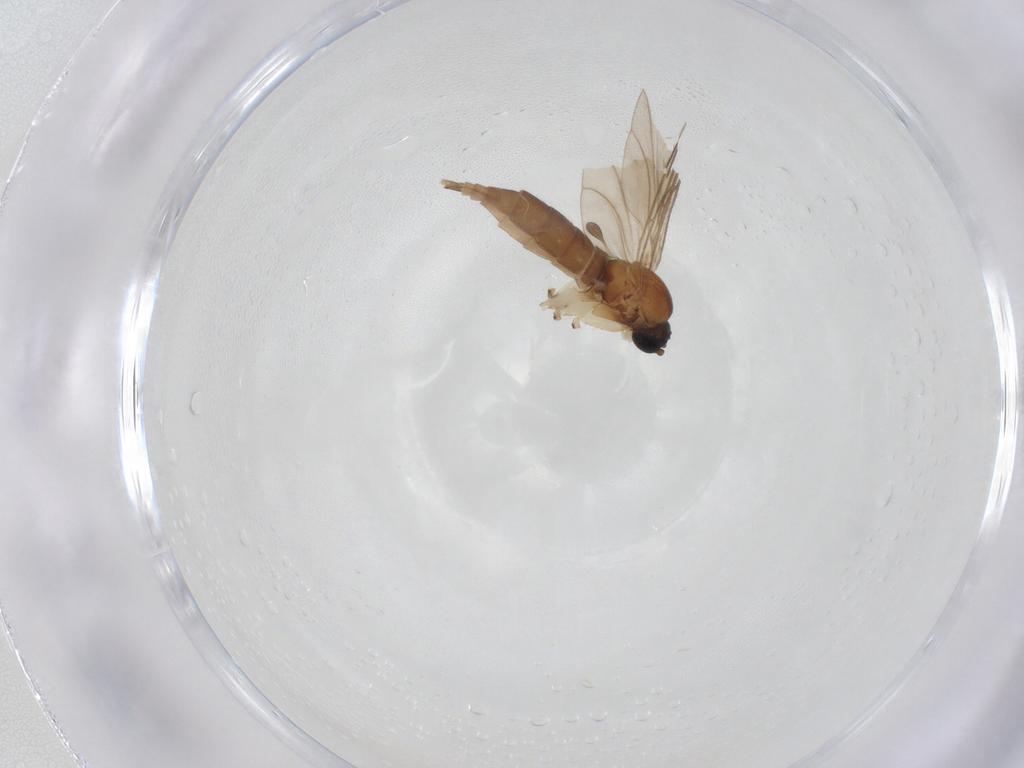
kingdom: Animalia
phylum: Arthropoda
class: Insecta
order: Diptera
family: Sciaridae
